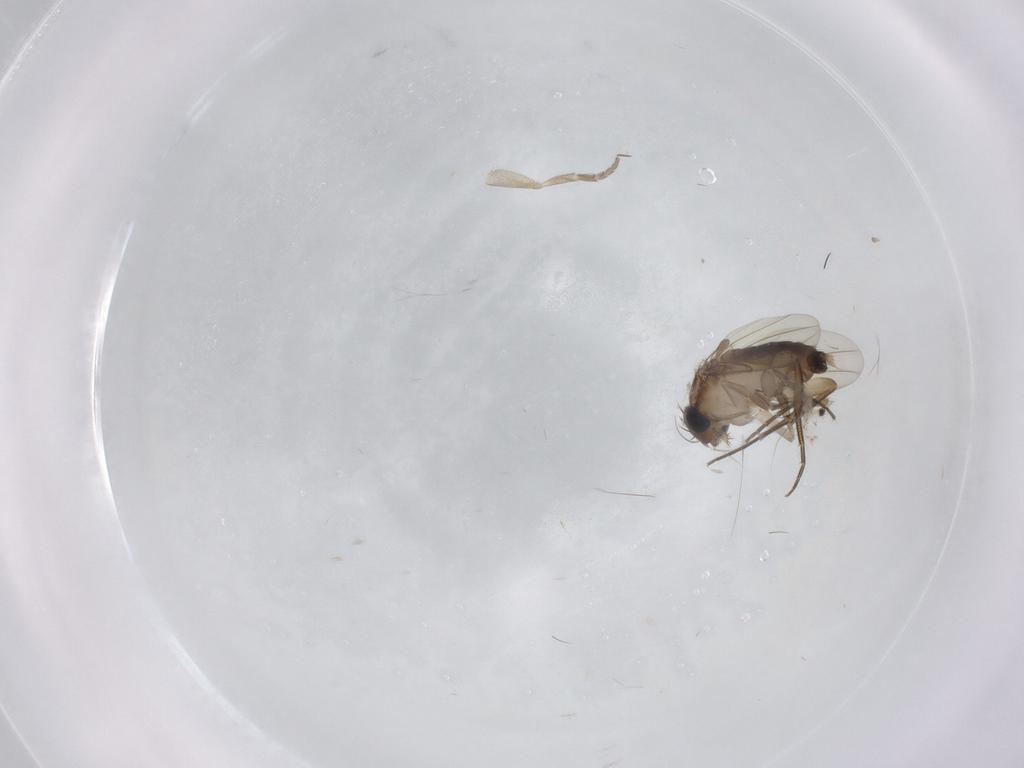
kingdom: Animalia
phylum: Arthropoda
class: Insecta
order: Diptera
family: Phoridae
